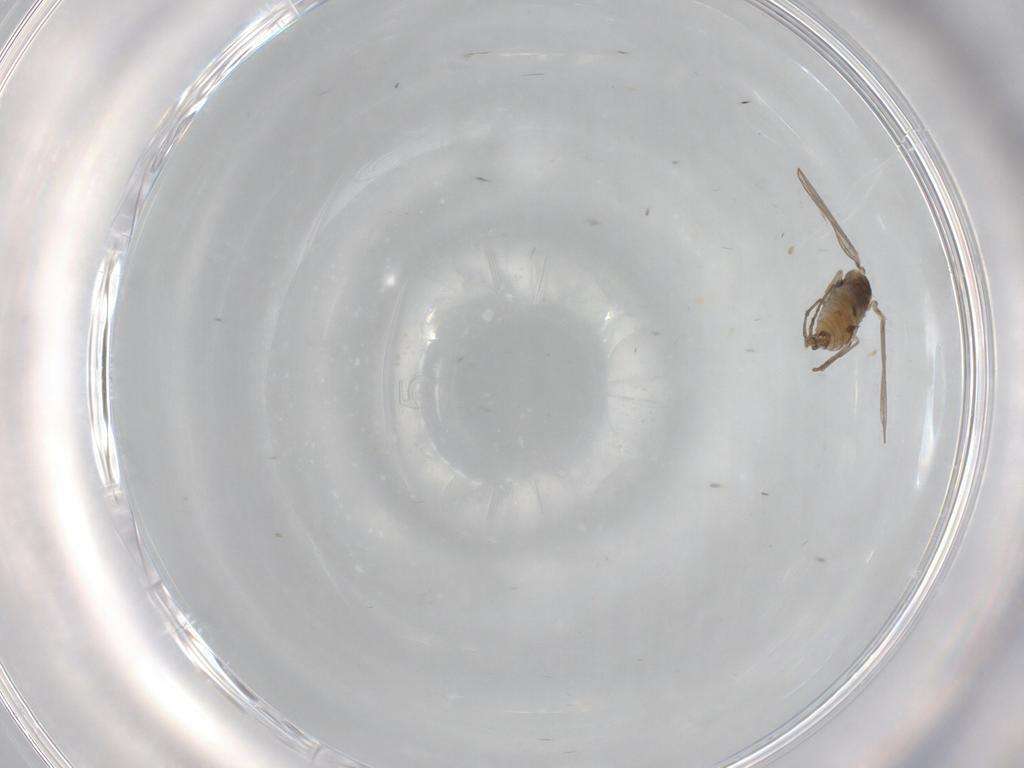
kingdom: Animalia
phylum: Arthropoda
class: Insecta
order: Diptera
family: Psychodidae
